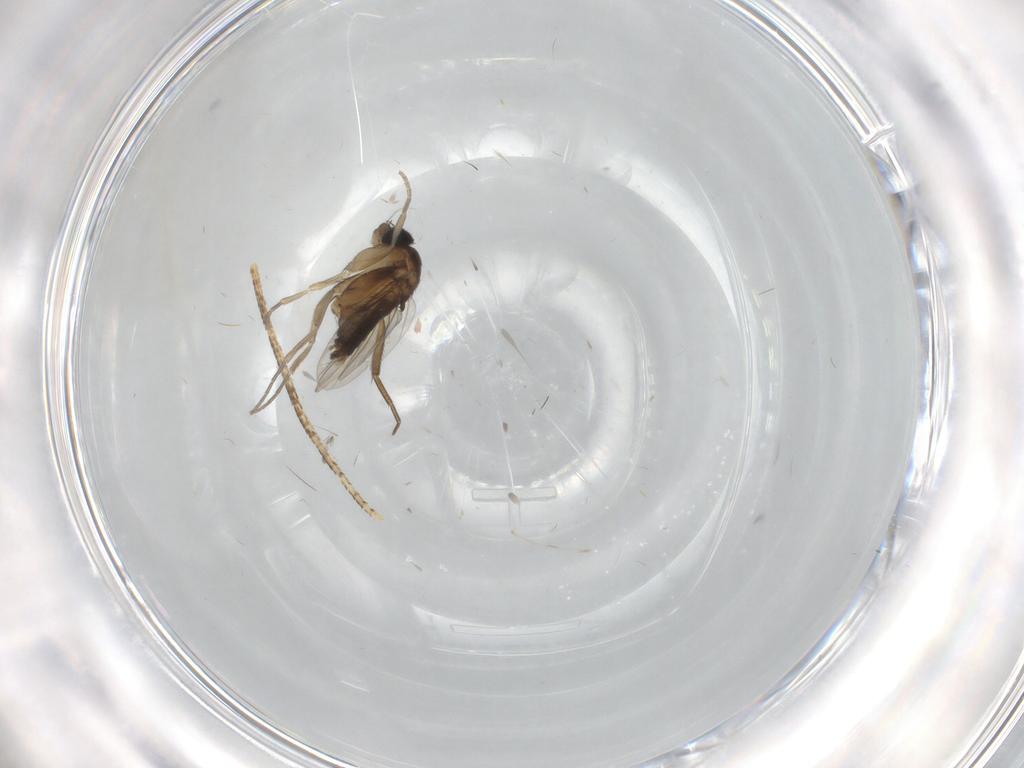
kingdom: Animalia
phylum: Arthropoda
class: Insecta
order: Diptera
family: Phoridae
